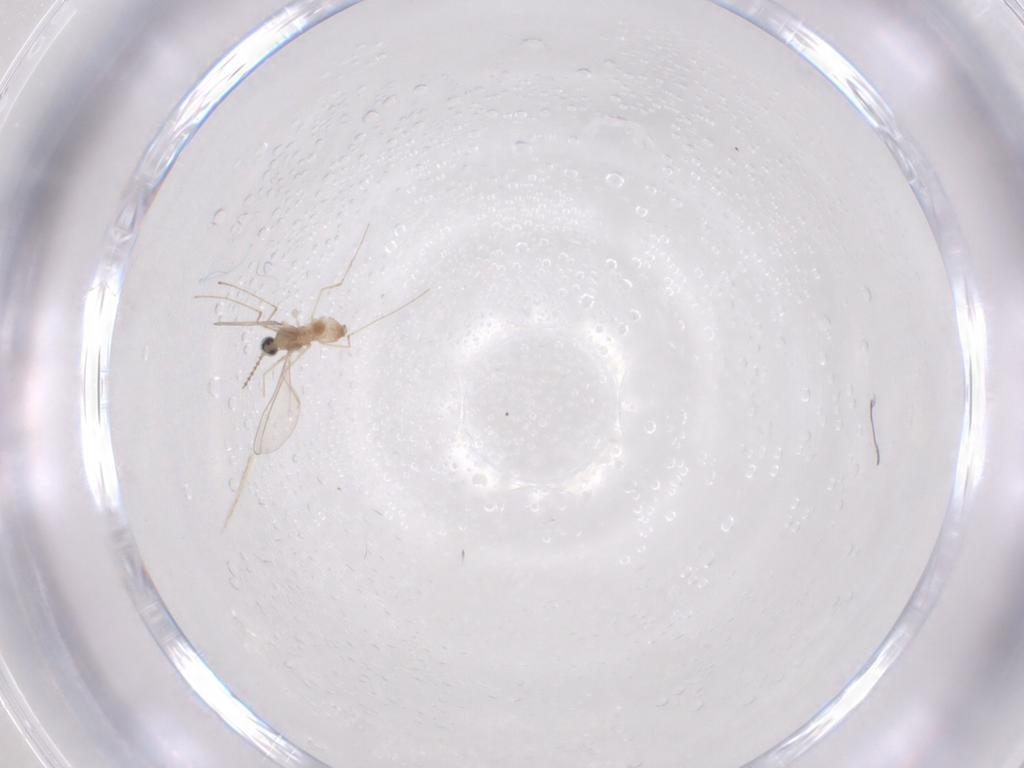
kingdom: Animalia
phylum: Arthropoda
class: Insecta
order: Diptera
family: Cecidomyiidae
